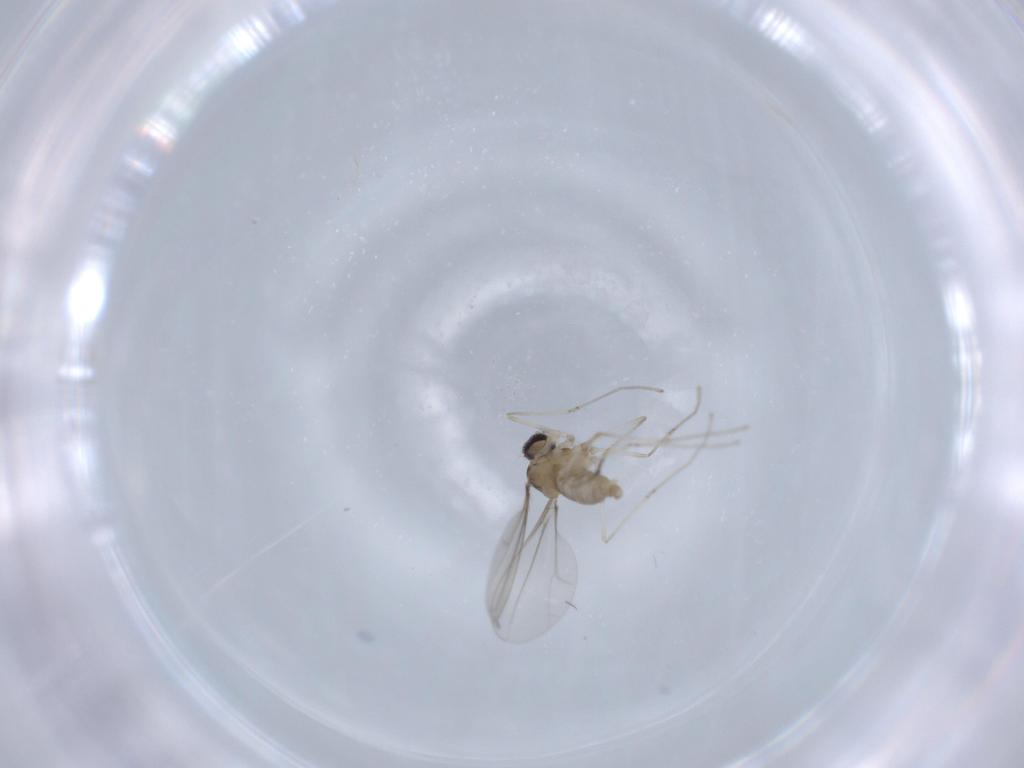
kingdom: Animalia
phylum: Arthropoda
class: Insecta
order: Diptera
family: Cecidomyiidae
